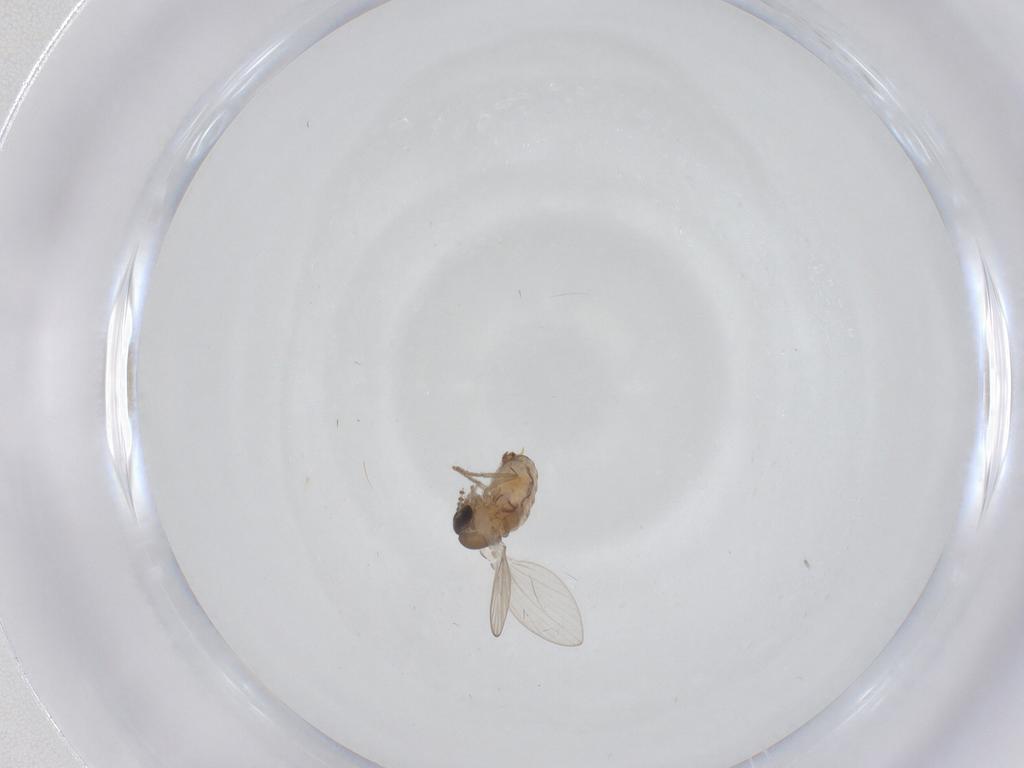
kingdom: Animalia
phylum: Arthropoda
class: Insecta
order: Diptera
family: Psychodidae
